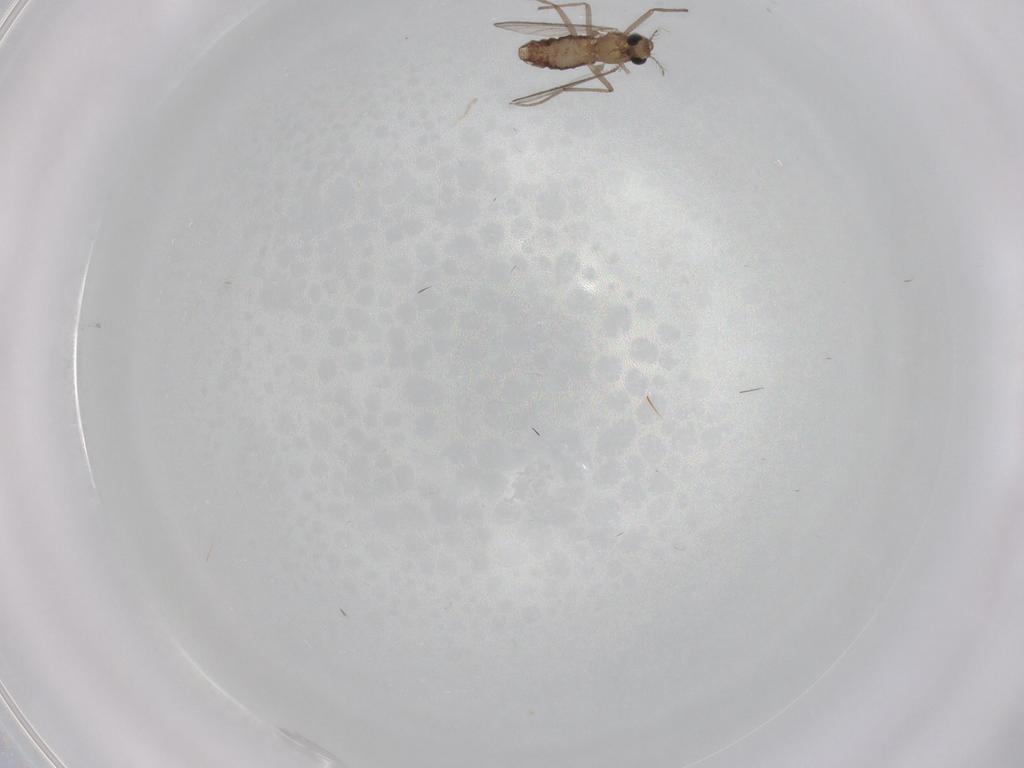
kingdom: Animalia
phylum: Arthropoda
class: Insecta
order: Diptera
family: Chironomidae
